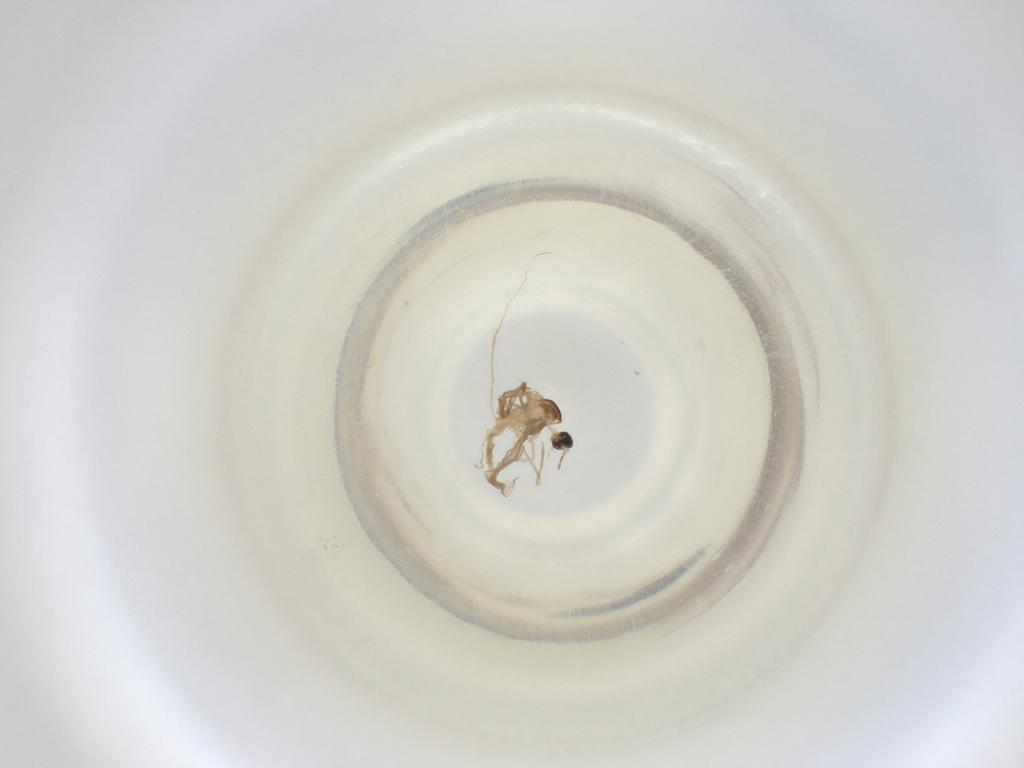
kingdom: Animalia
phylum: Arthropoda
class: Insecta
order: Diptera
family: Cecidomyiidae
